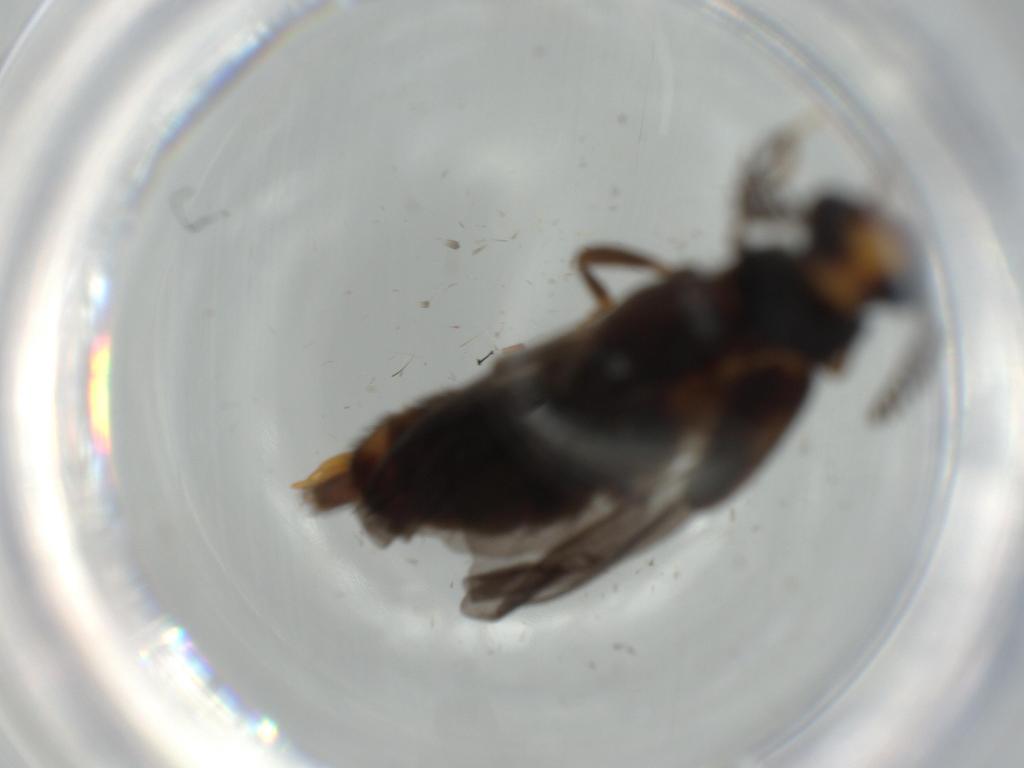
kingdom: Animalia
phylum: Arthropoda
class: Insecta
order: Coleoptera
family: Phengodidae
